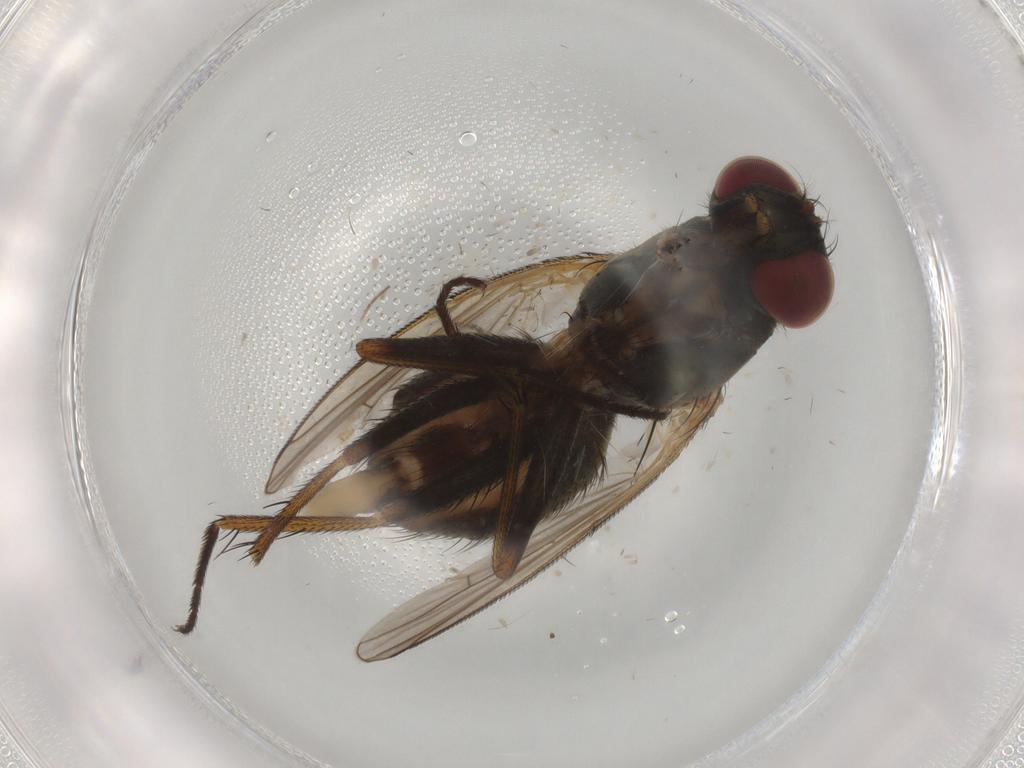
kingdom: Animalia
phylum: Arthropoda
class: Insecta
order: Diptera
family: Muscidae
